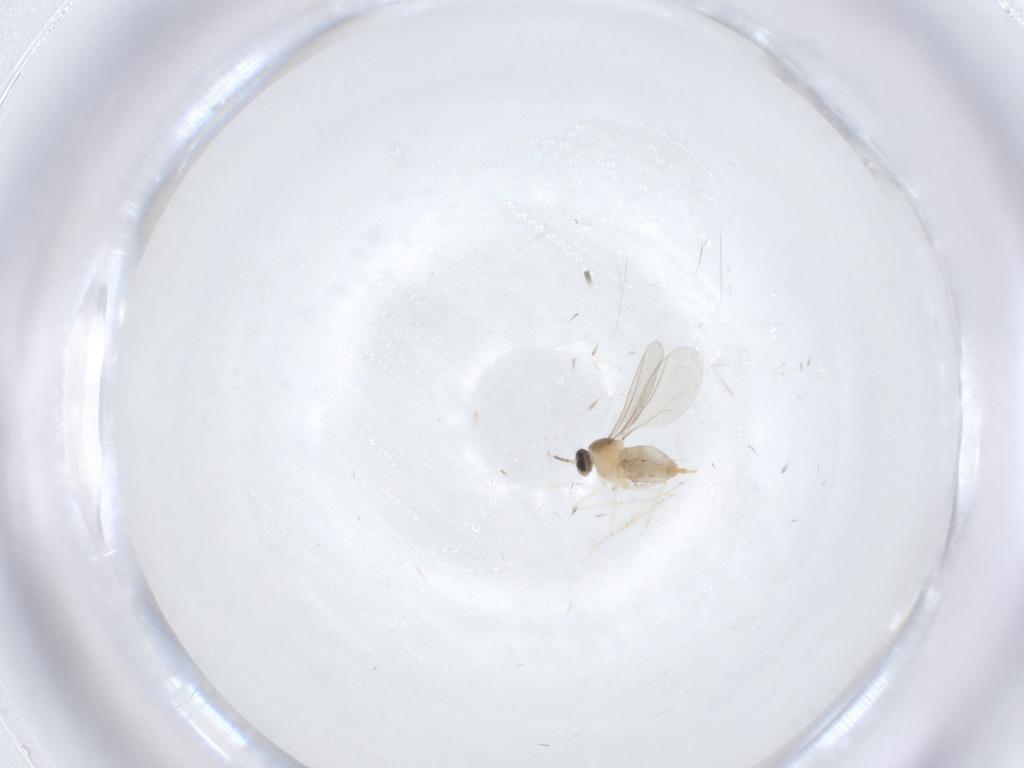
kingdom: Animalia
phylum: Arthropoda
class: Insecta
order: Diptera
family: Cecidomyiidae
